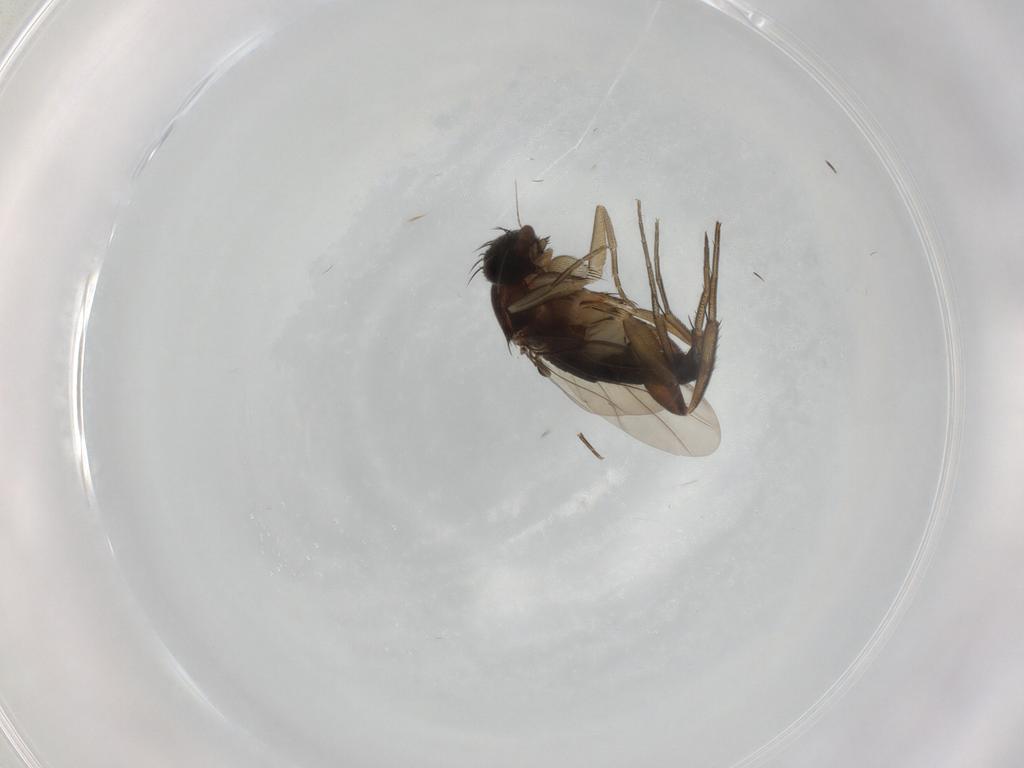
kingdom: Animalia
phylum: Arthropoda
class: Insecta
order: Diptera
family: Phoridae
